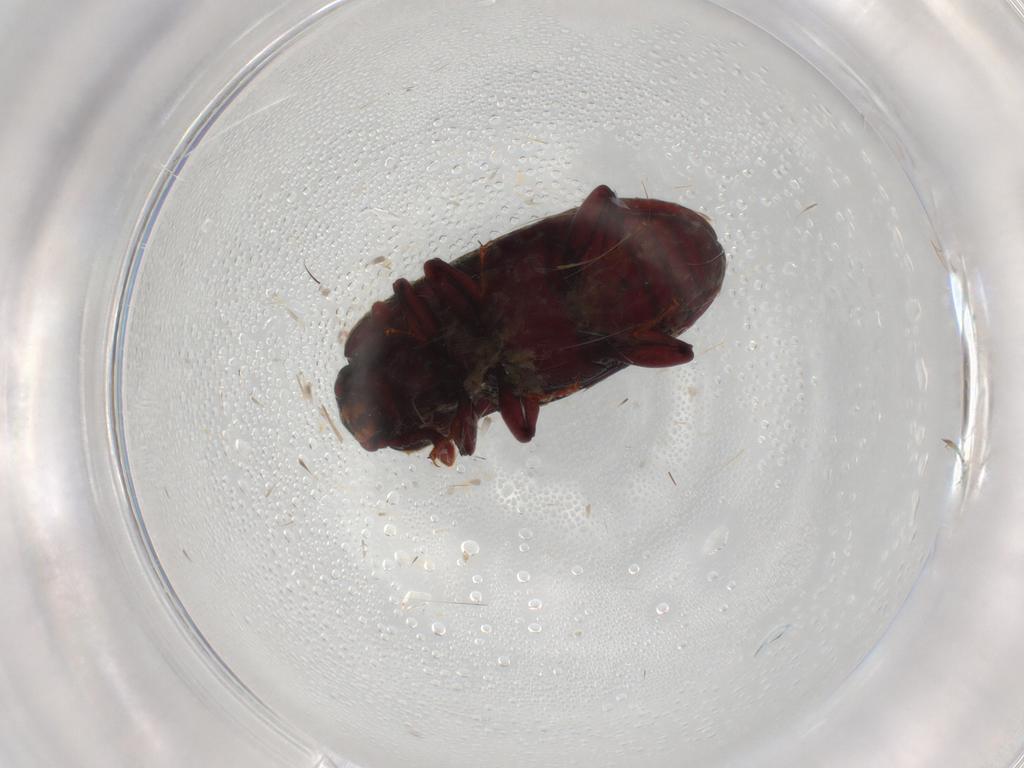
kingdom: Animalia
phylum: Arthropoda
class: Insecta
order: Coleoptera
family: Cerylonidae
